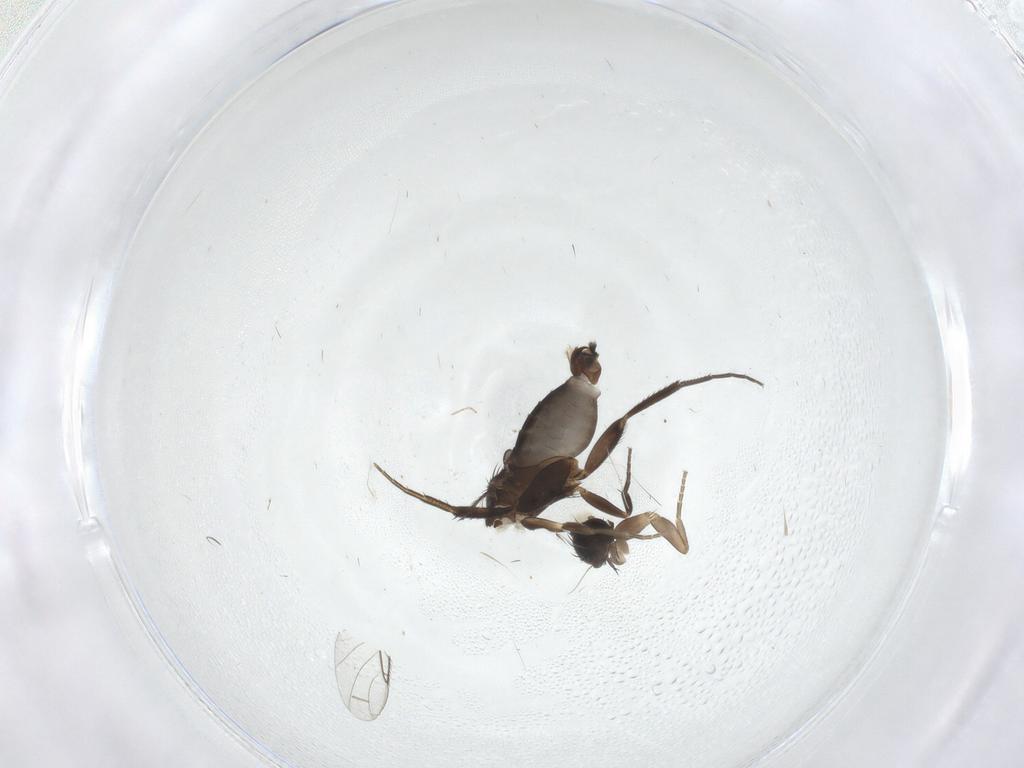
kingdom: Animalia
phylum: Arthropoda
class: Insecta
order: Diptera
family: Phoridae
